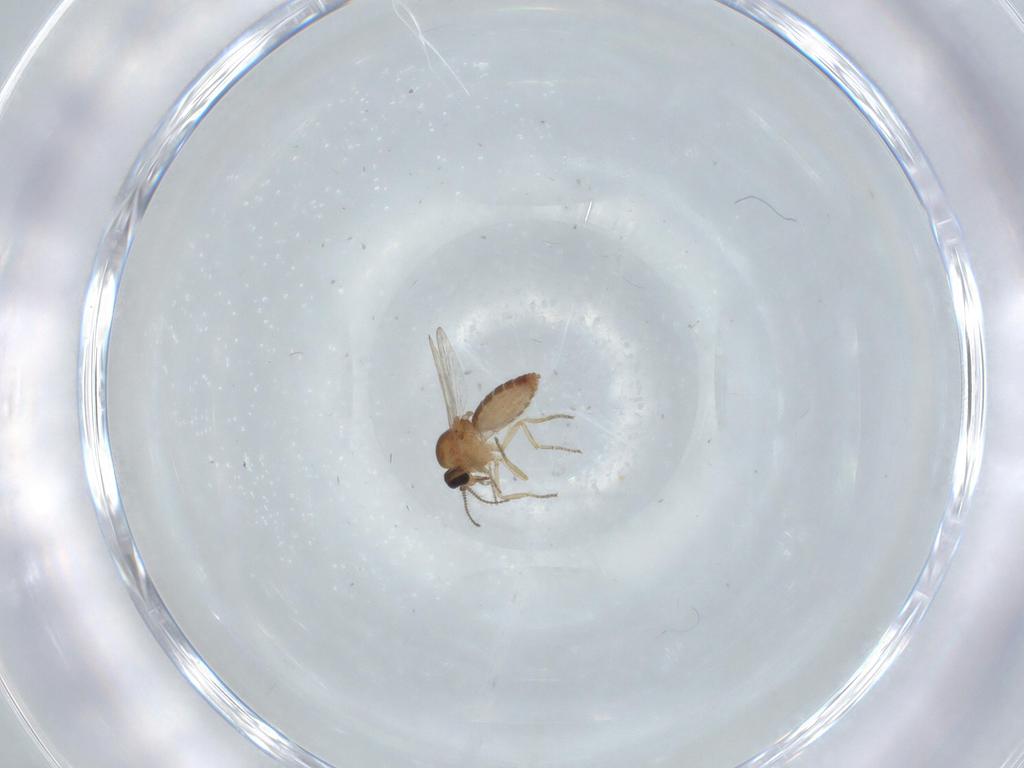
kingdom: Animalia
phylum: Arthropoda
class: Insecta
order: Diptera
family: Ceratopogonidae
